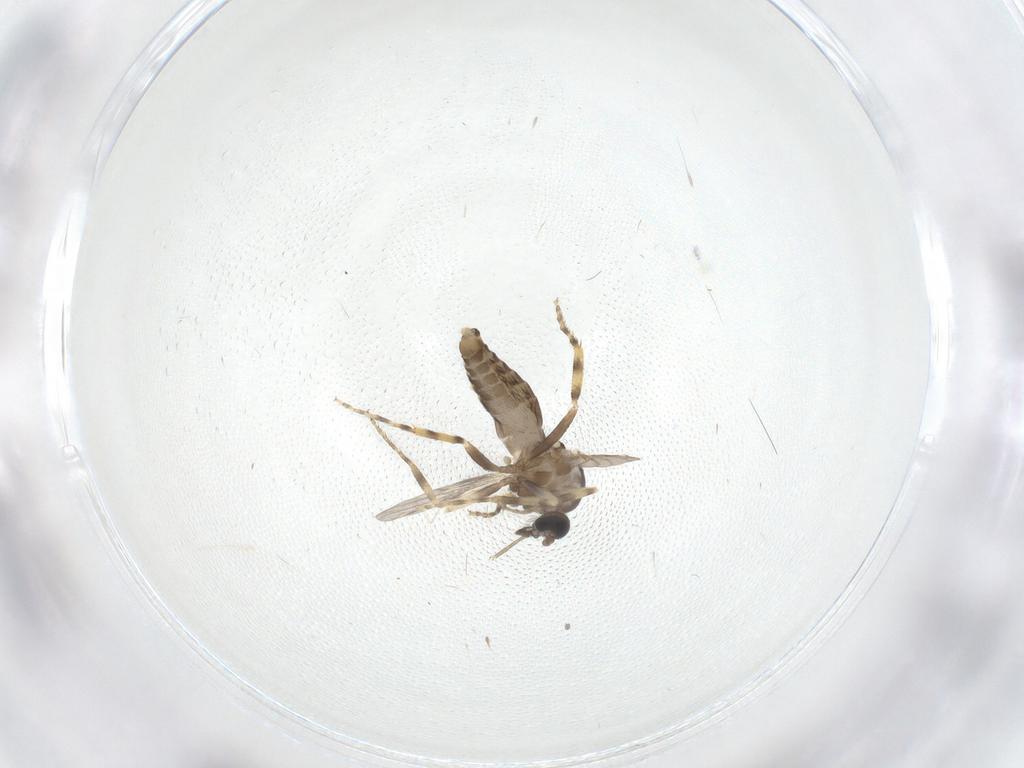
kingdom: Animalia
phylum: Arthropoda
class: Insecta
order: Diptera
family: Ceratopogonidae
